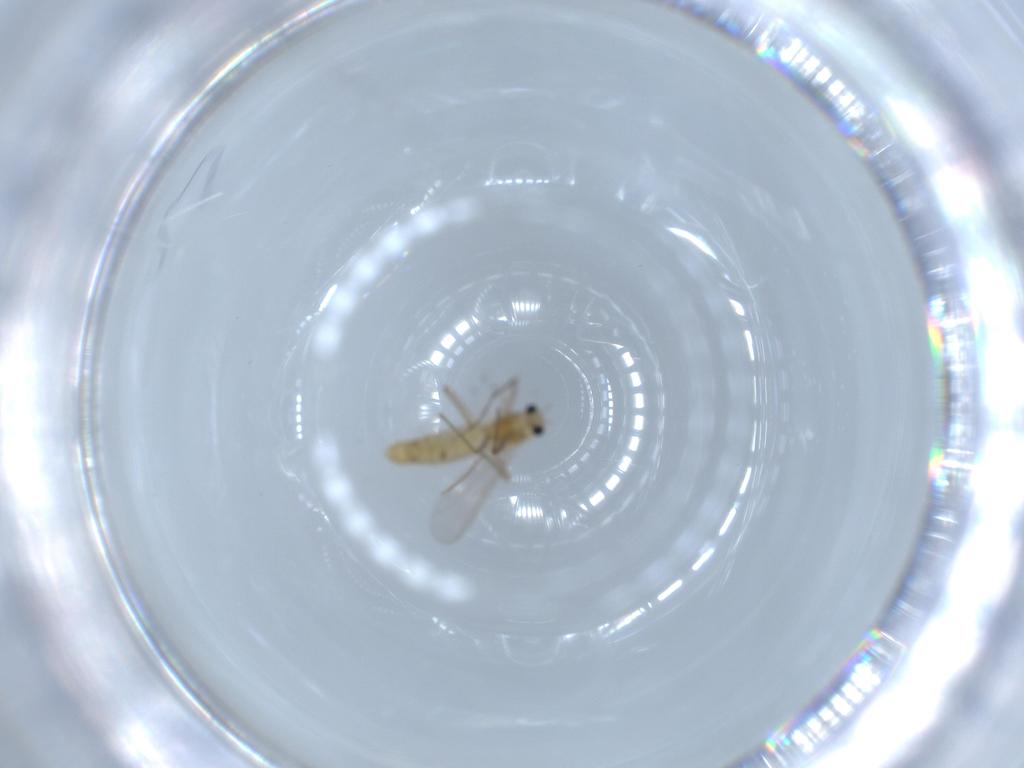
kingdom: Animalia
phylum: Arthropoda
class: Insecta
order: Diptera
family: Chironomidae
